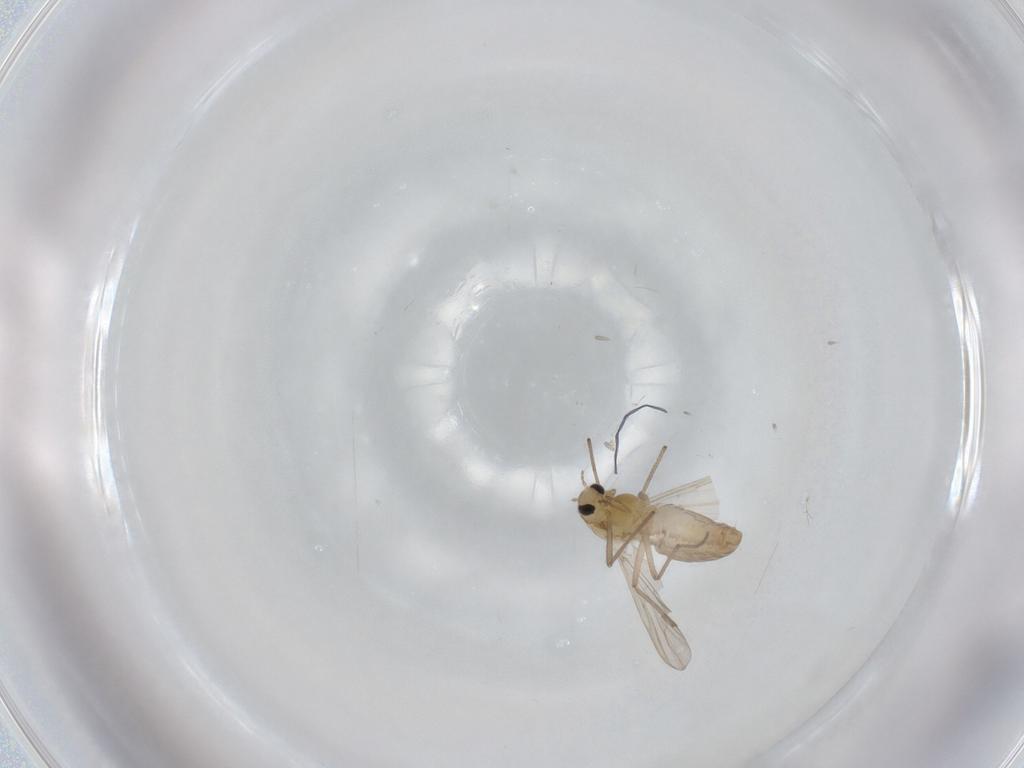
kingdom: Animalia
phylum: Arthropoda
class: Insecta
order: Diptera
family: Chironomidae
